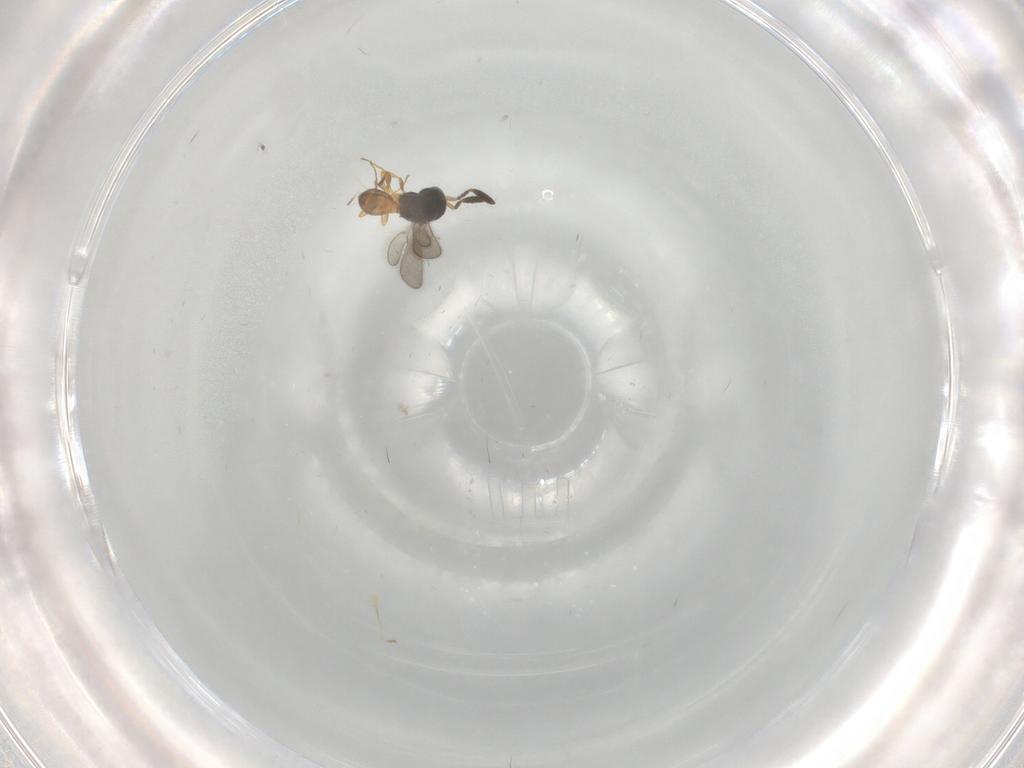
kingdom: Animalia
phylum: Arthropoda
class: Insecta
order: Hymenoptera
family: Scelionidae
